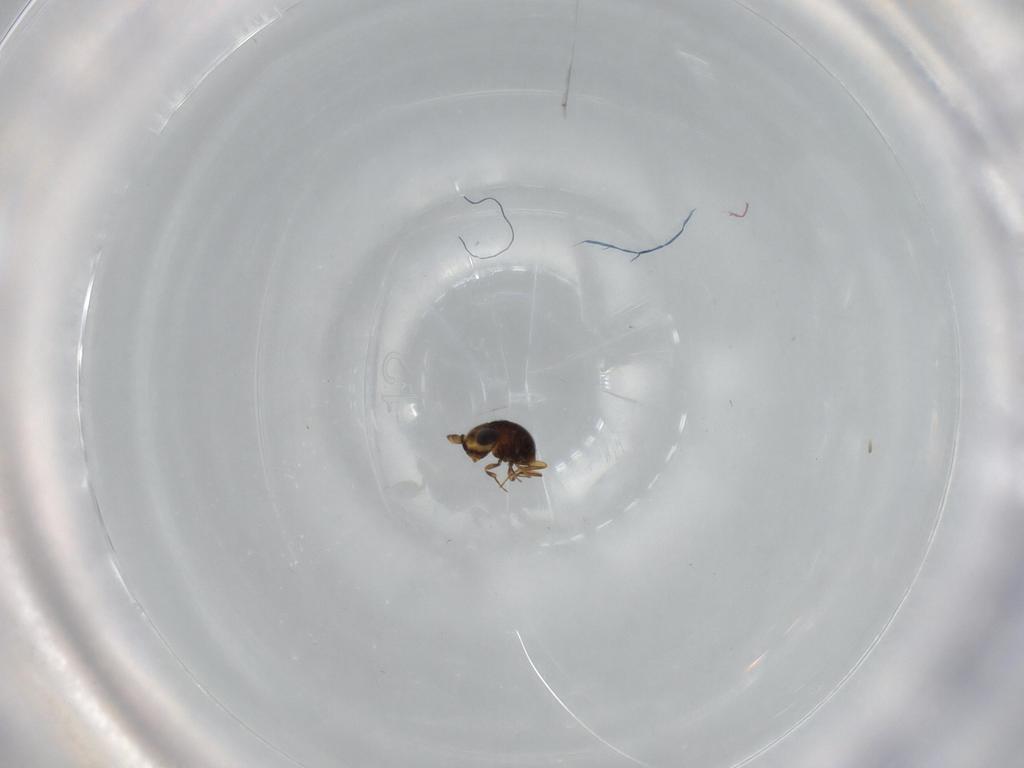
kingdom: Animalia
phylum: Arthropoda
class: Insecta
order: Hymenoptera
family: Scelionidae
